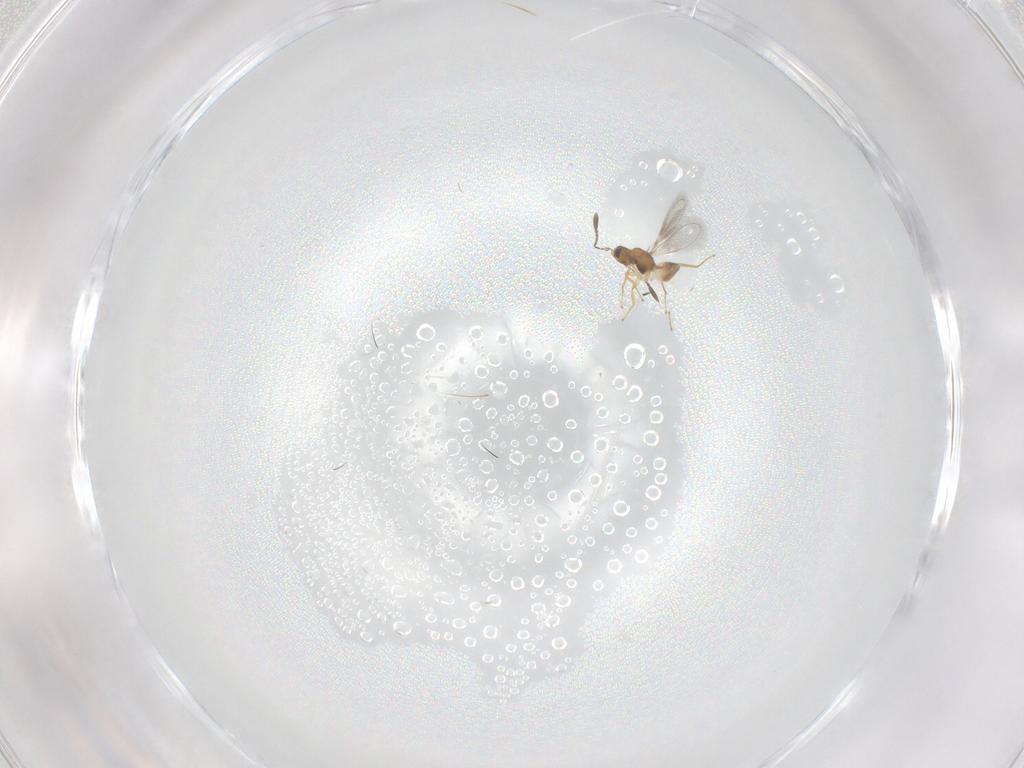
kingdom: Animalia
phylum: Arthropoda
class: Insecta
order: Hymenoptera
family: Mymaridae
